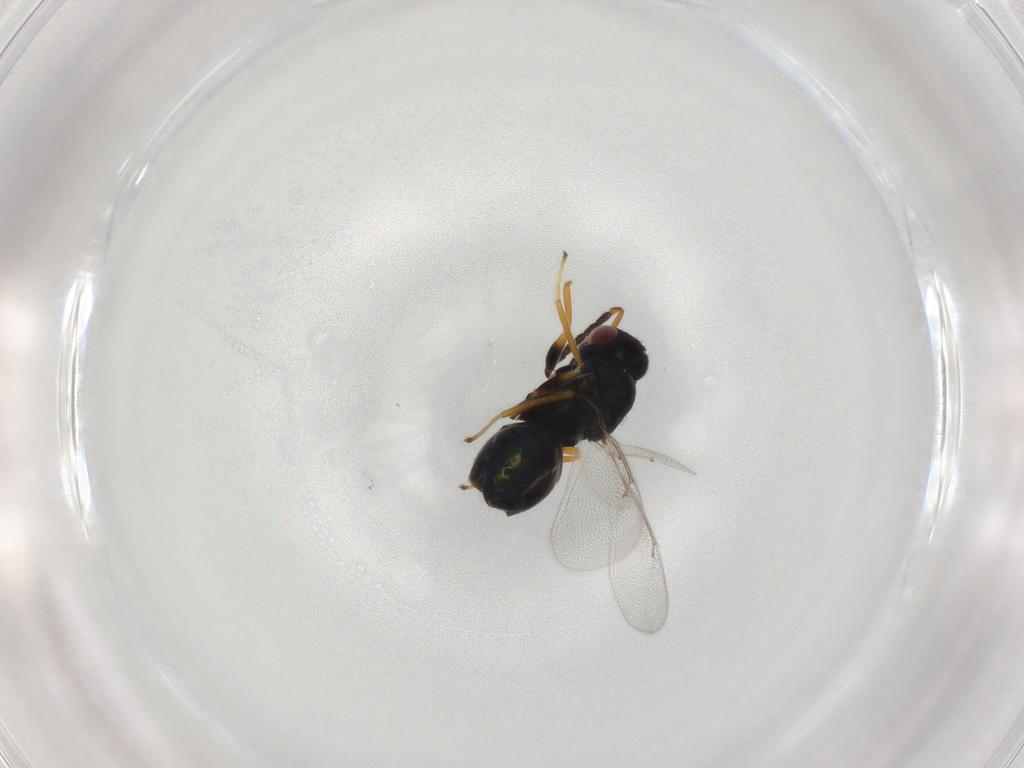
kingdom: Animalia
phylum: Arthropoda
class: Insecta
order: Hymenoptera
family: Eulophidae
